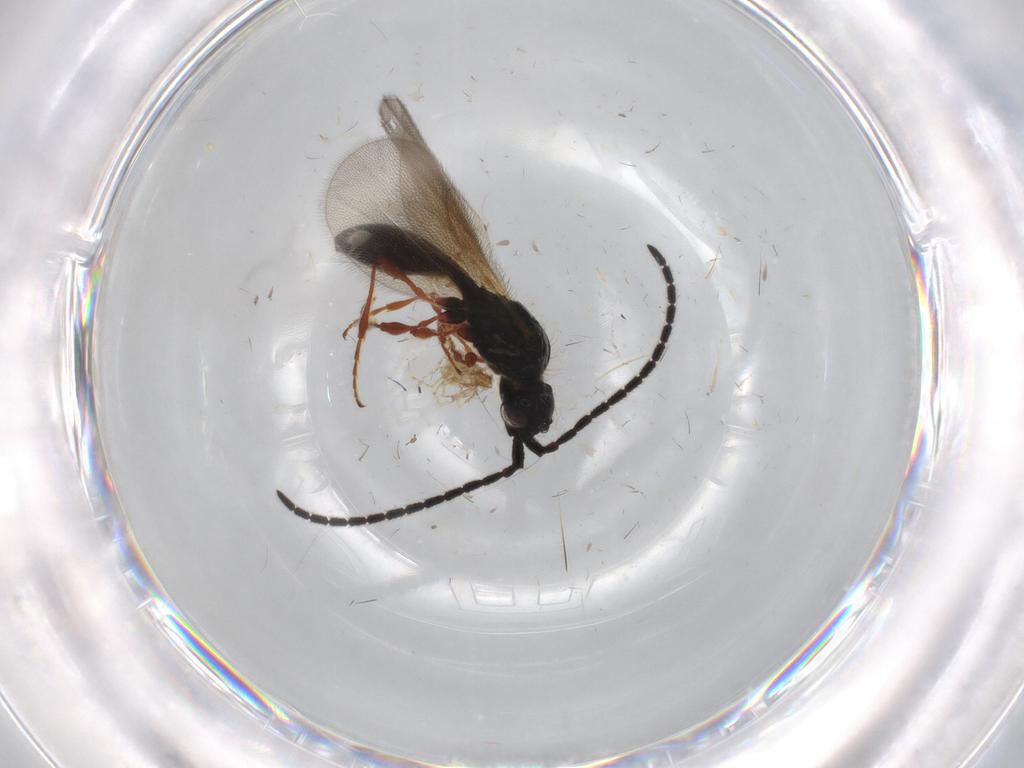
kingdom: Animalia
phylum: Arthropoda
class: Insecta
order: Hymenoptera
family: Diapriidae
